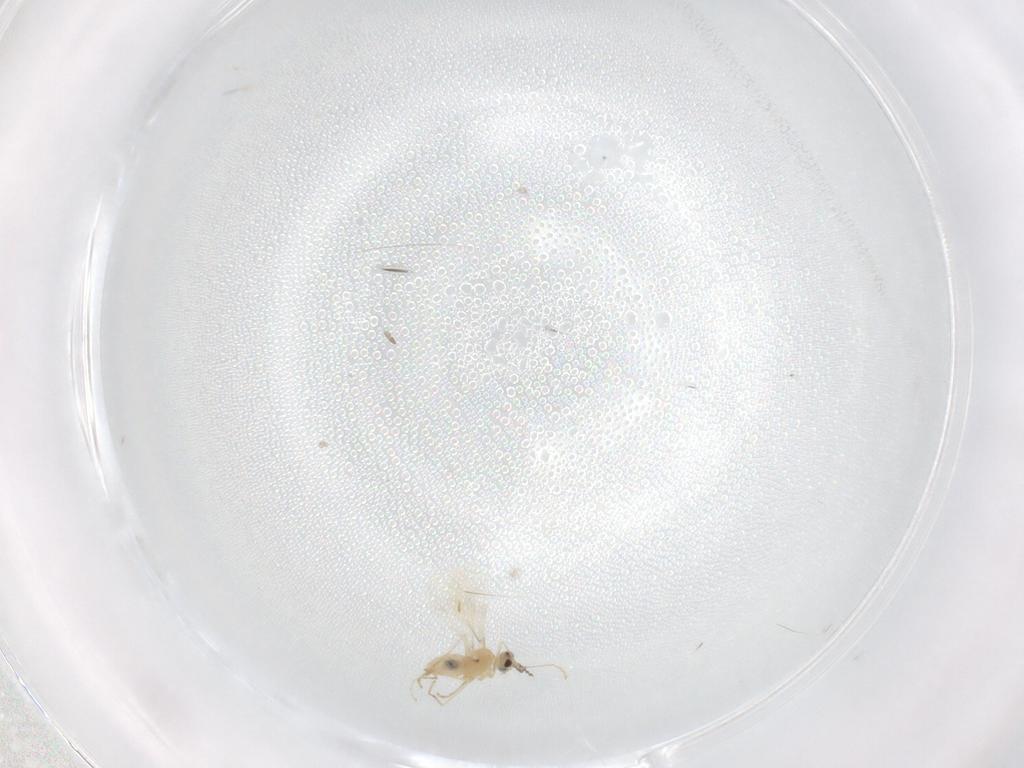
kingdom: Animalia
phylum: Arthropoda
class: Insecta
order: Diptera
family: Cecidomyiidae
